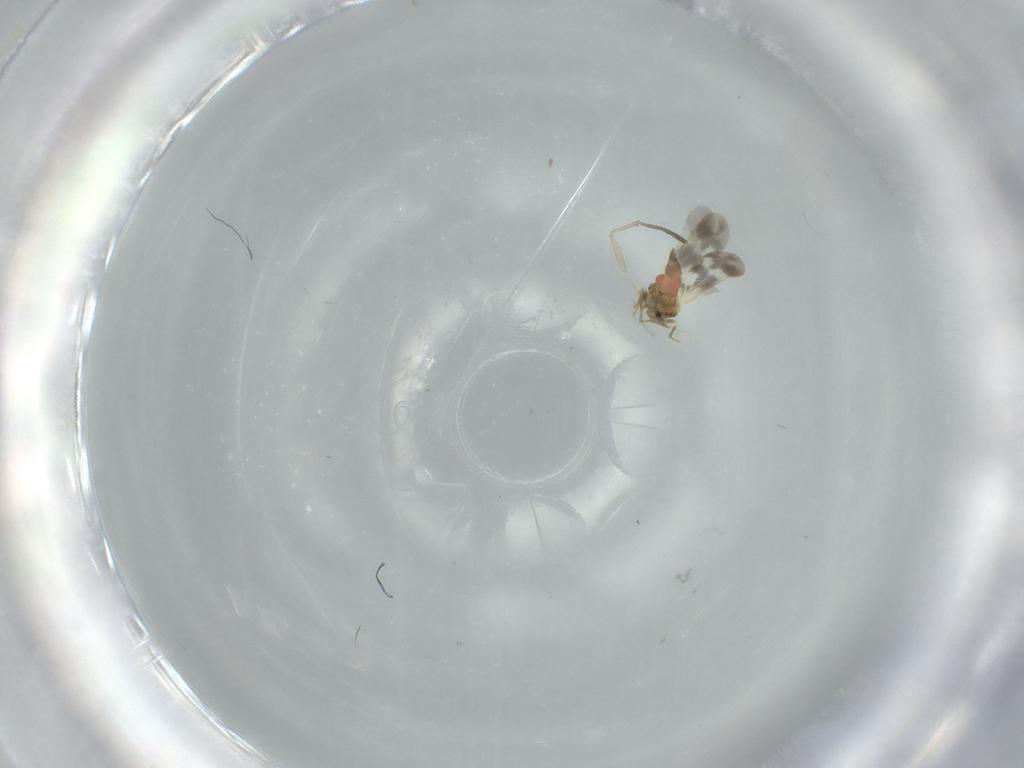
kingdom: Animalia
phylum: Arthropoda
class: Insecta
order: Hemiptera
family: Aleyrodidae
